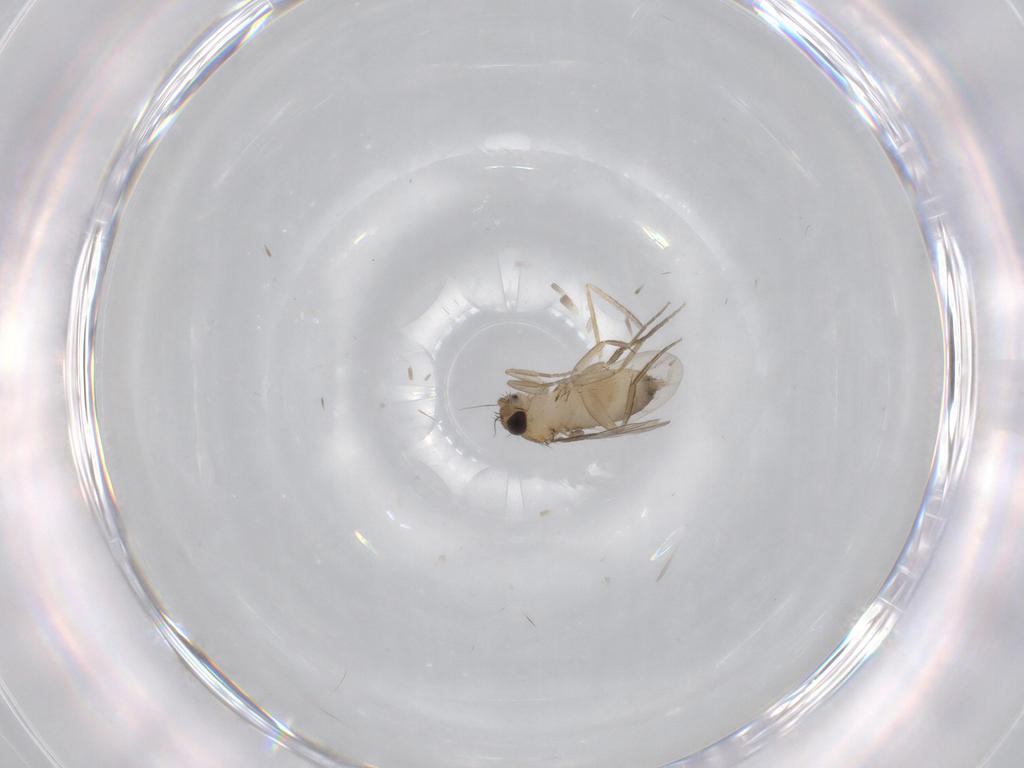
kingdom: Animalia
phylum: Arthropoda
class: Insecta
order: Diptera
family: Phoridae
